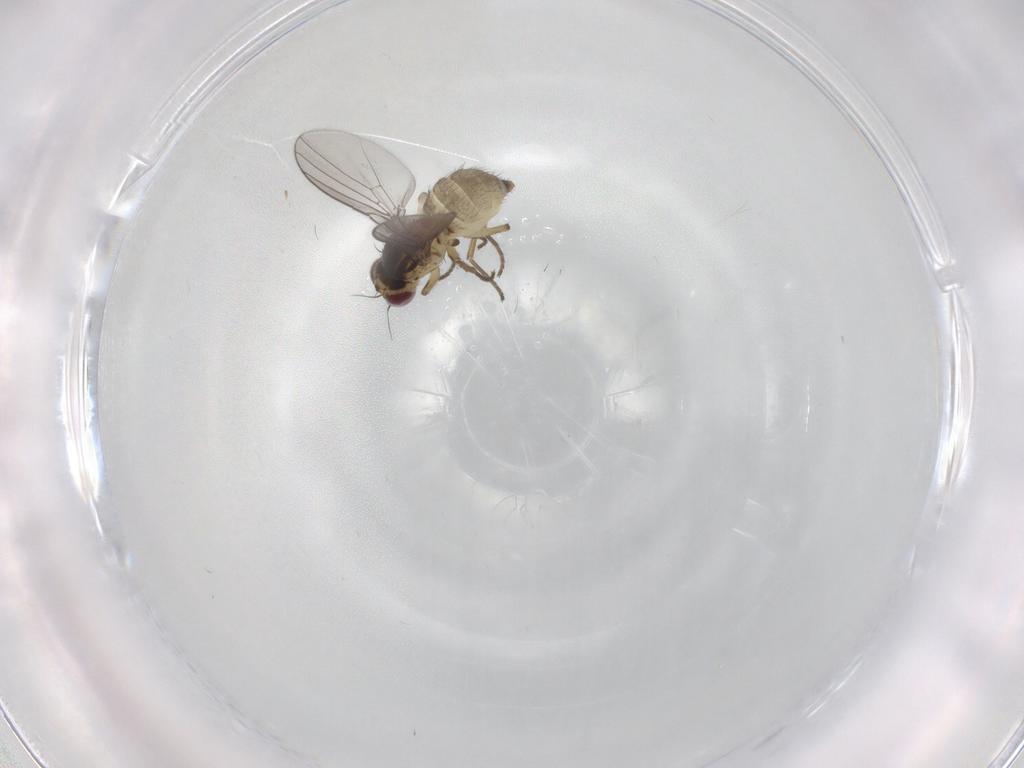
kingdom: Animalia
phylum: Arthropoda
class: Insecta
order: Diptera
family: Agromyzidae
